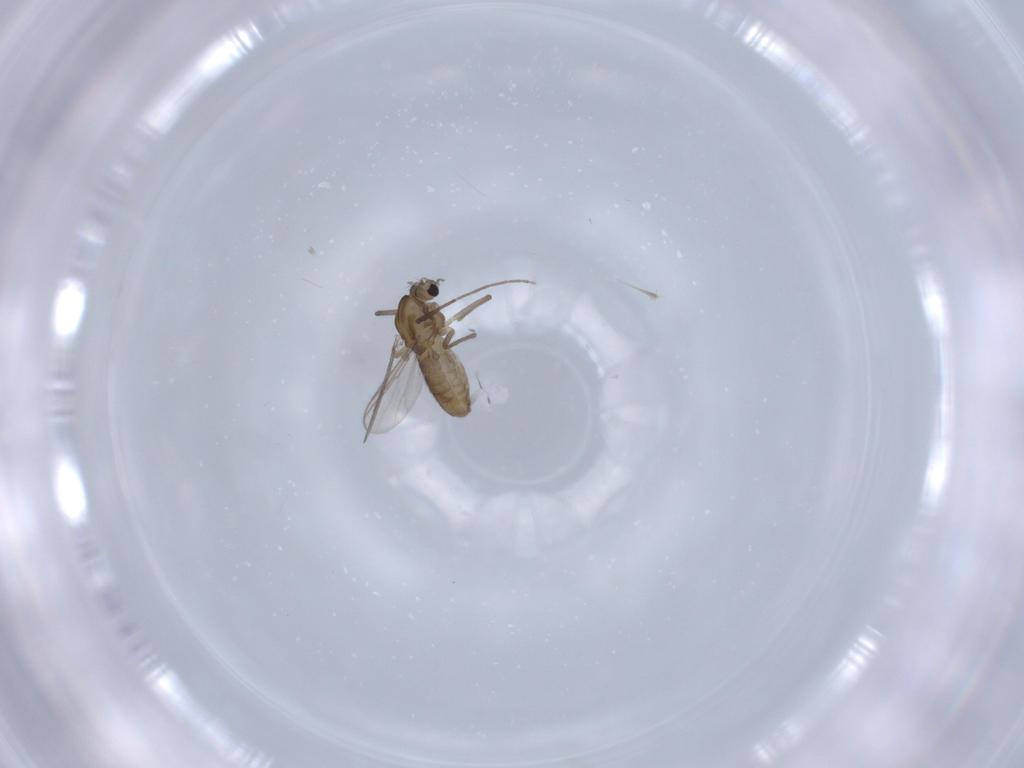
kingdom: Animalia
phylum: Arthropoda
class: Insecta
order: Diptera
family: Chironomidae
